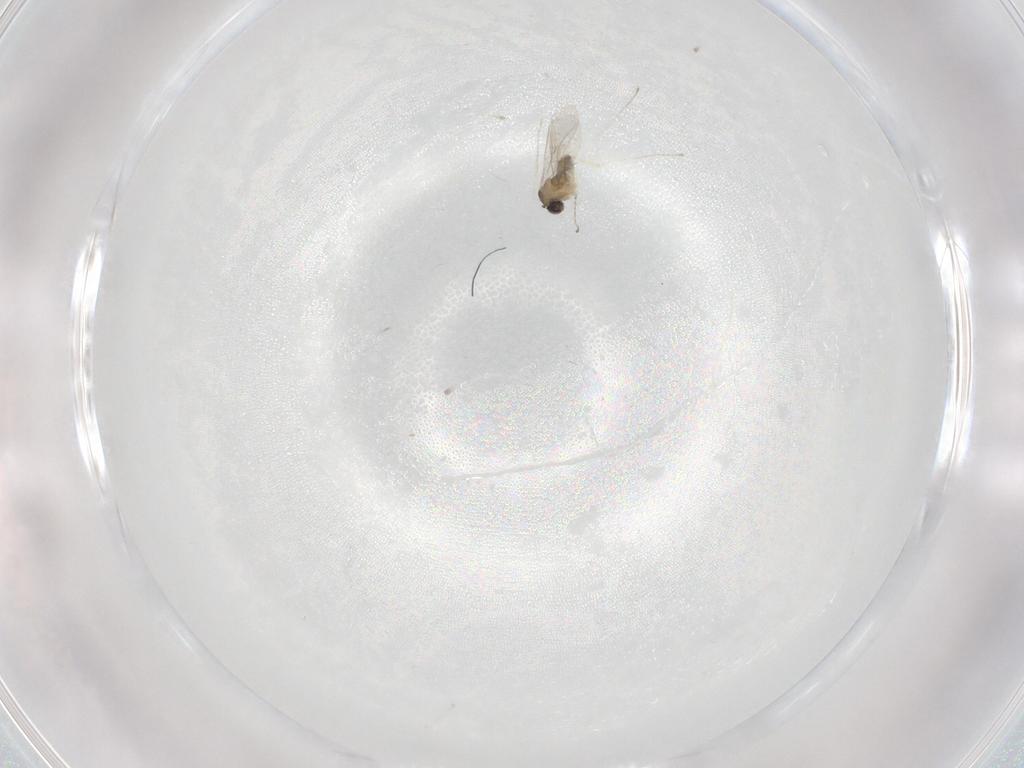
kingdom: Animalia
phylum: Arthropoda
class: Insecta
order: Diptera
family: Cecidomyiidae
